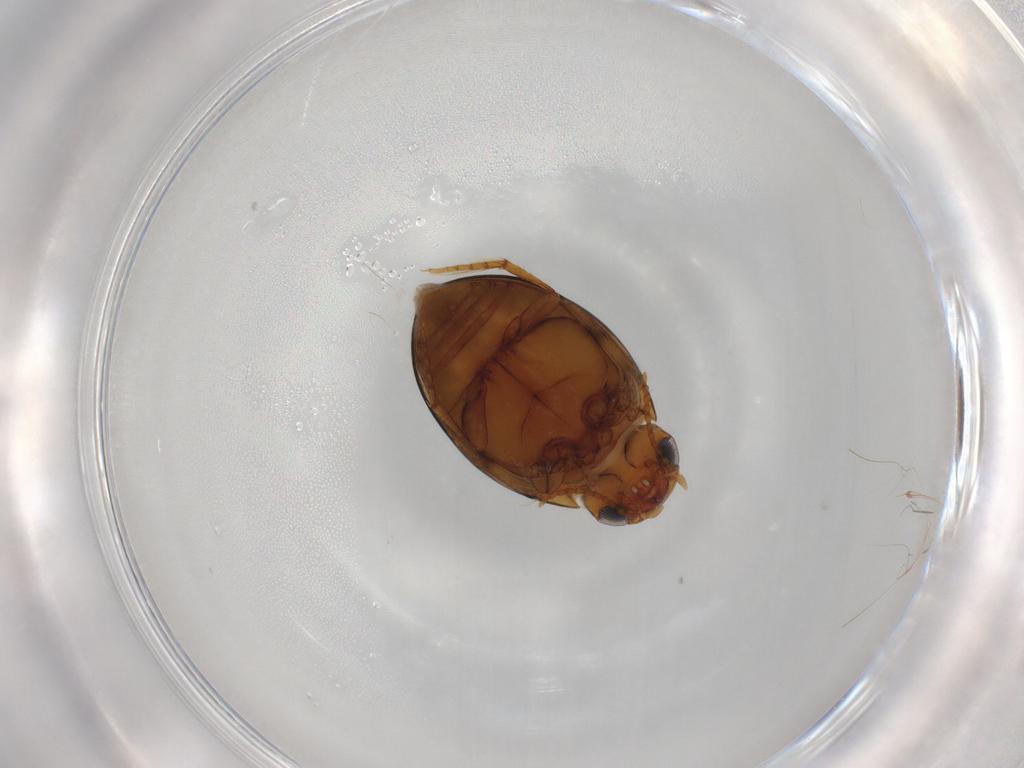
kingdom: Animalia
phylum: Arthropoda
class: Insecta
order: Coleoptera
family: Dytiscidae
